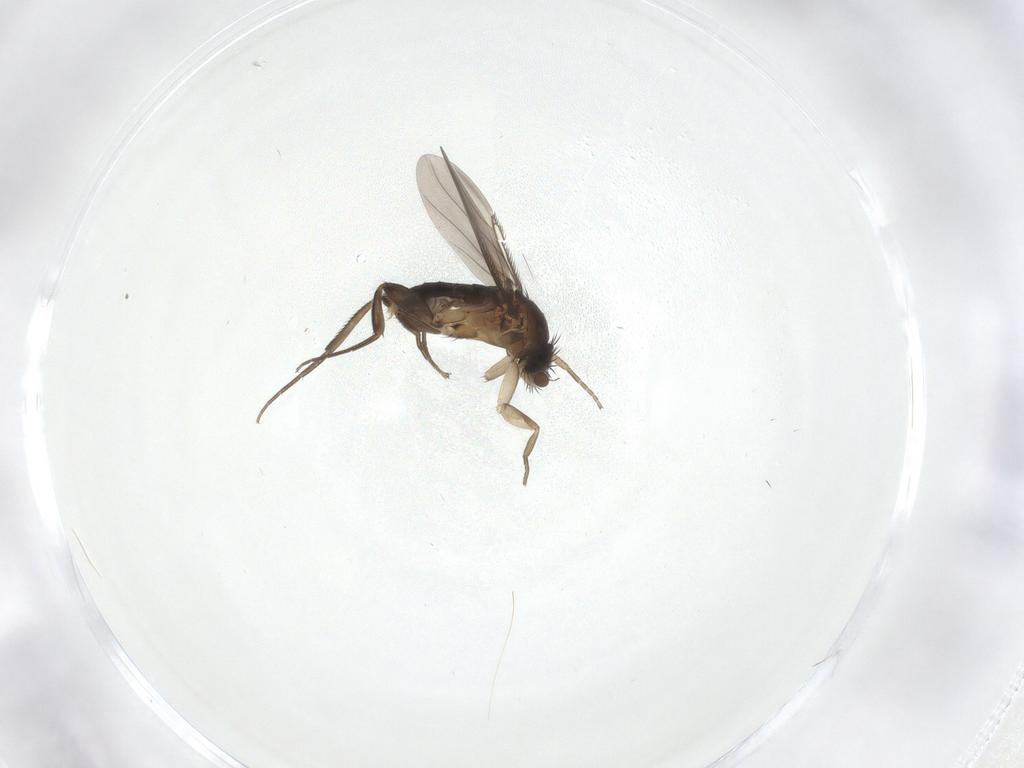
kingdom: Animalia
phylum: Arthropoda
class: Insecta
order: Diptera
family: Phoridae
